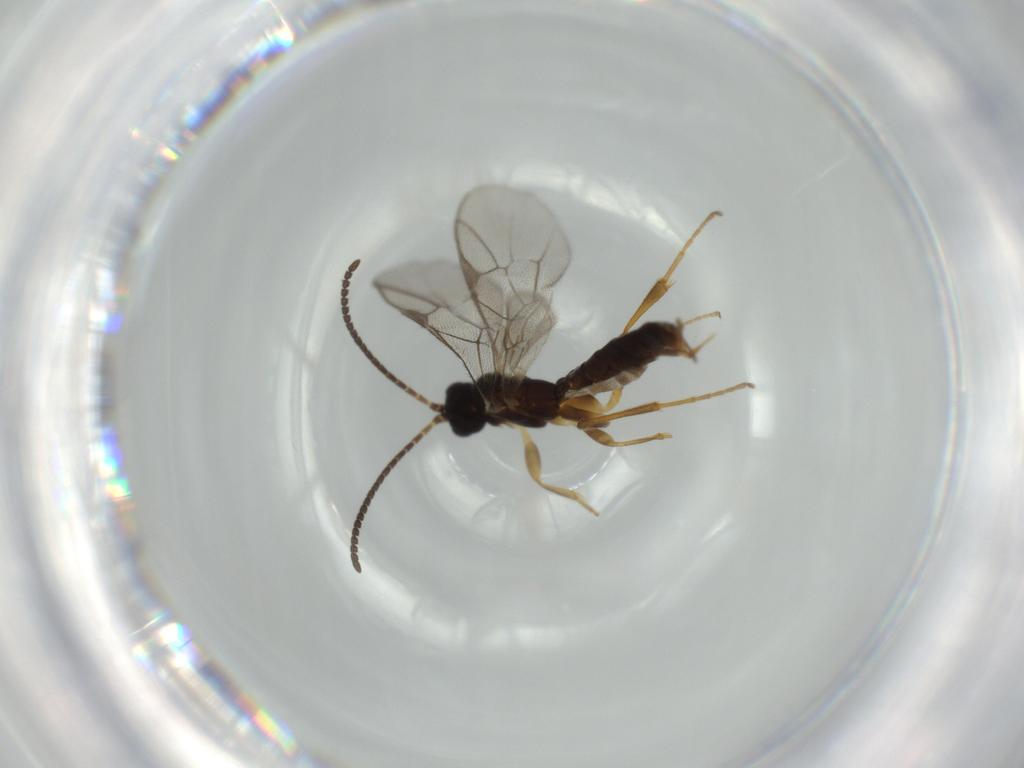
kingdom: Animalia
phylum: Arthropoda
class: Insecta
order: Hymenoptera
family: Ichneumonidae
